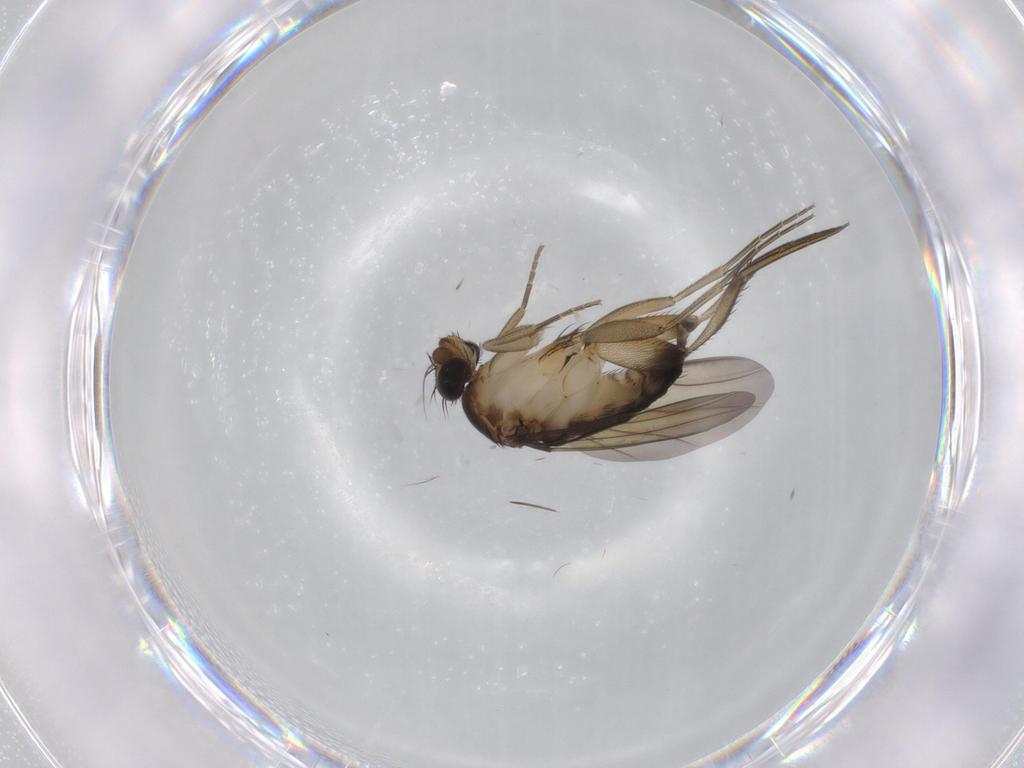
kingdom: Animalia
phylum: Arthropoda
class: Insecta
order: Diptera
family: Phoridae
